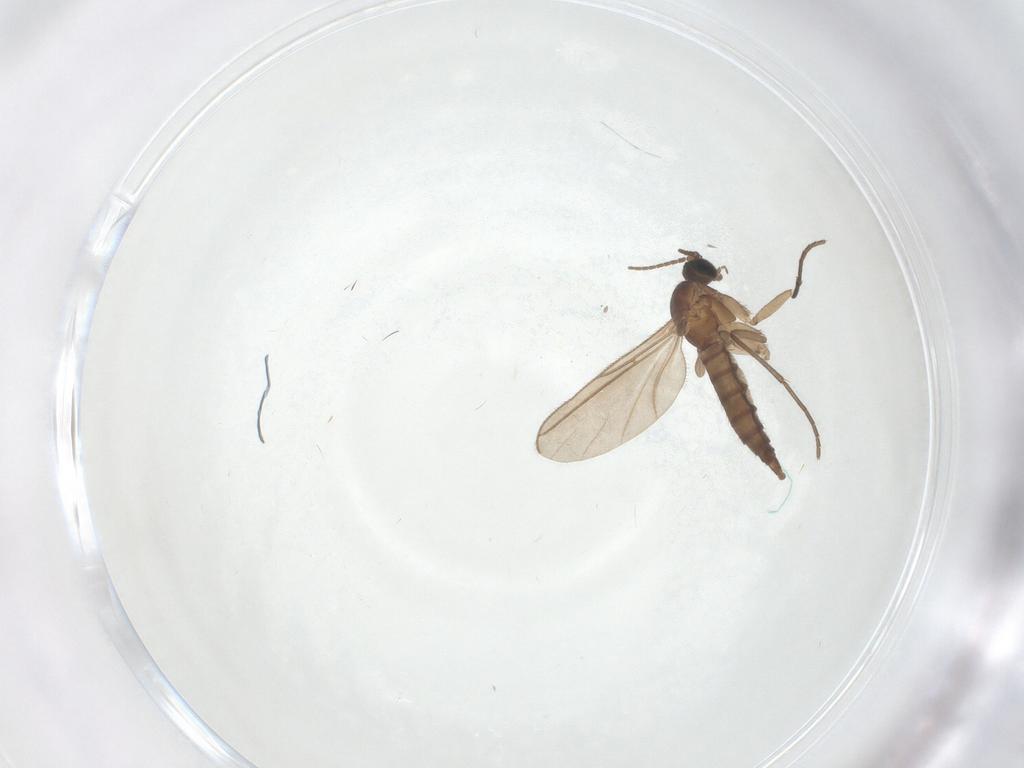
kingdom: Animalia
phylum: Arthropoda
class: Insecta
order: Diptera
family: Sciaridae
